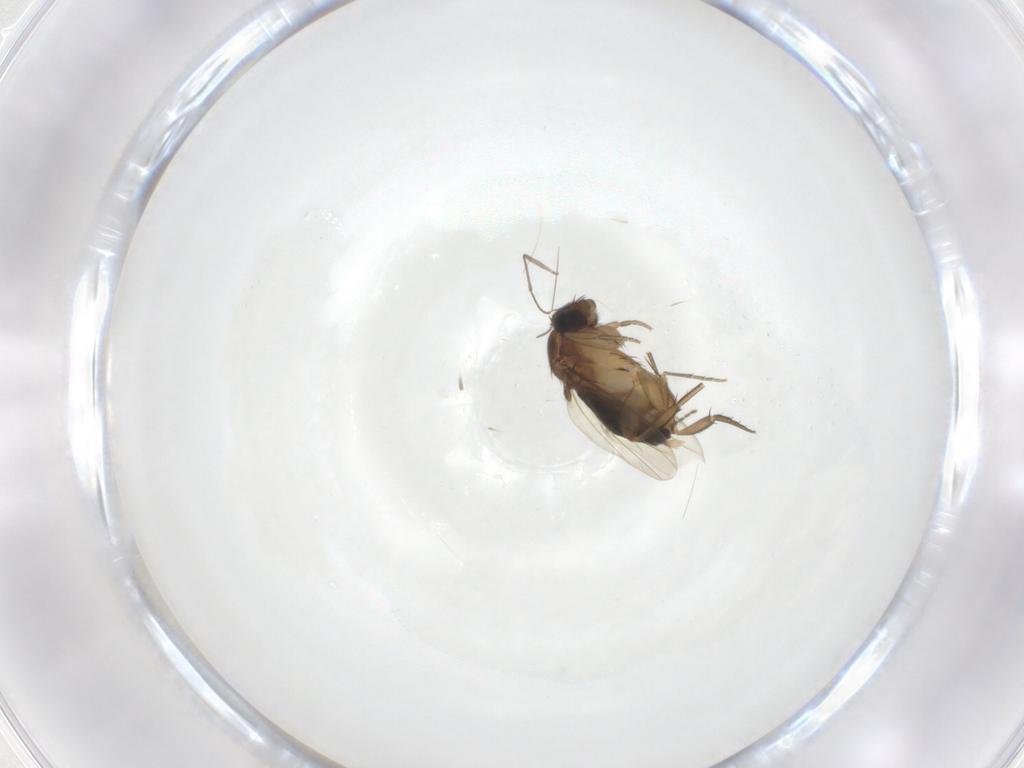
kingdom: Animalia
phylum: Arthropoda
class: Insecta
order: Diptera
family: Phoridae
